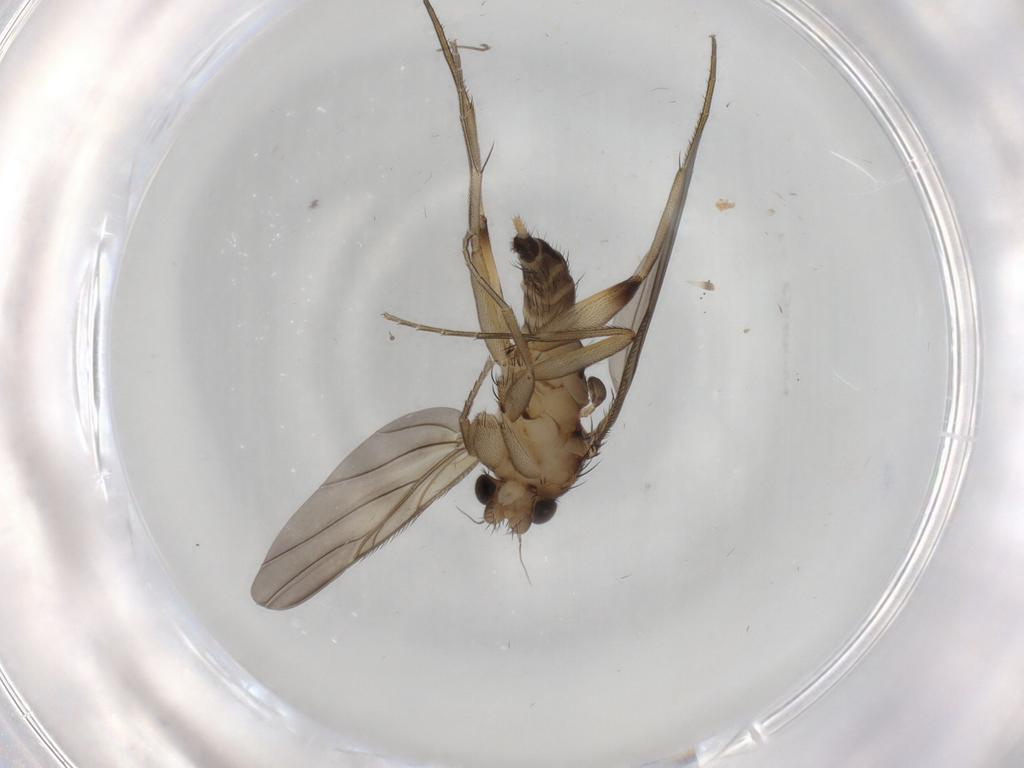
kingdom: Animalia
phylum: Arthropoda
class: Insecta
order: Diptera
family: Phoridae
